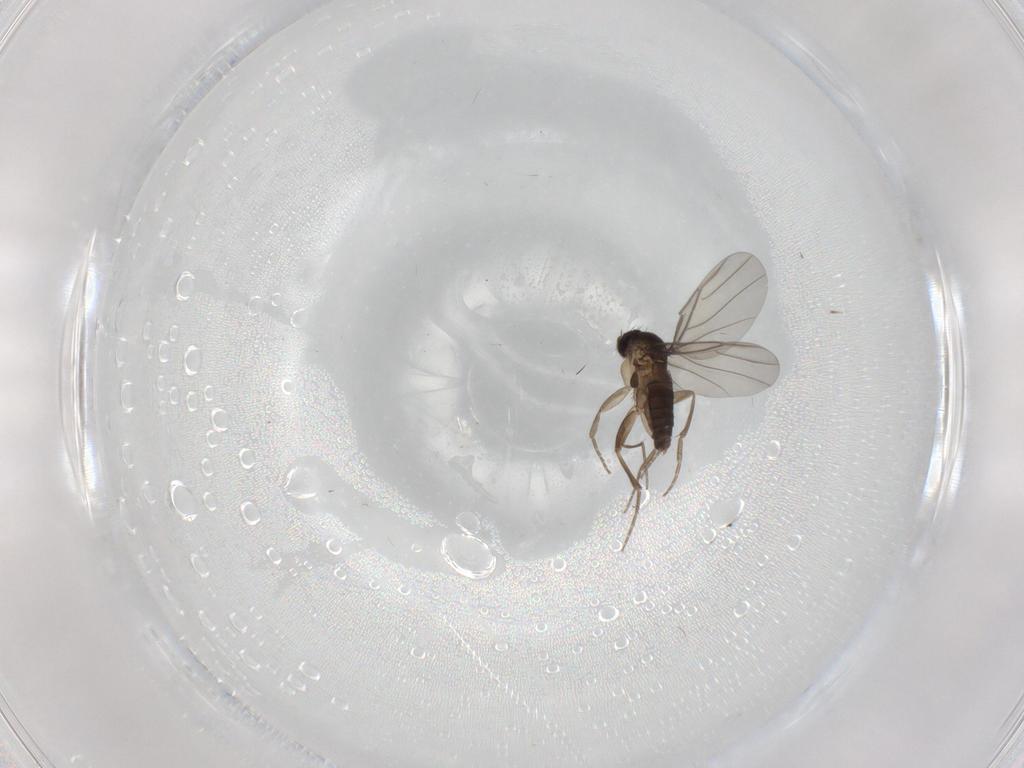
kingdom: Animalia
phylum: Arthropoda
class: Insecta
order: Diptera
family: Phoridae
